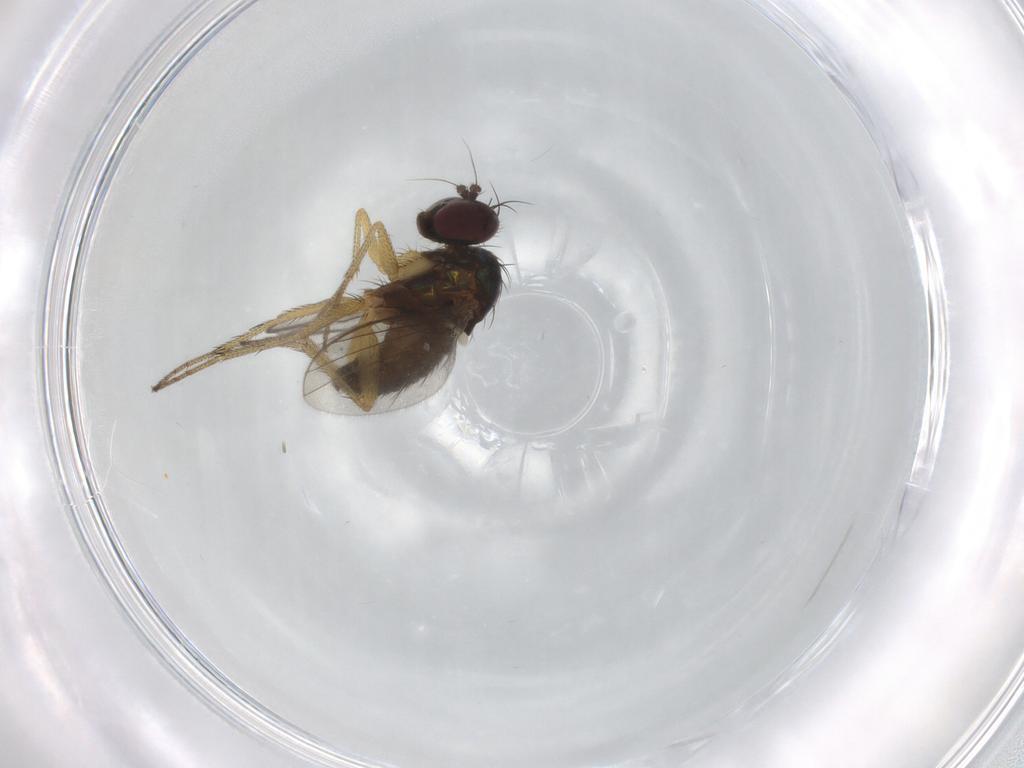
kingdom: Animalia
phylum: Arthropoda
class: Insecta
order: Diptera
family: Dolichopodidae
